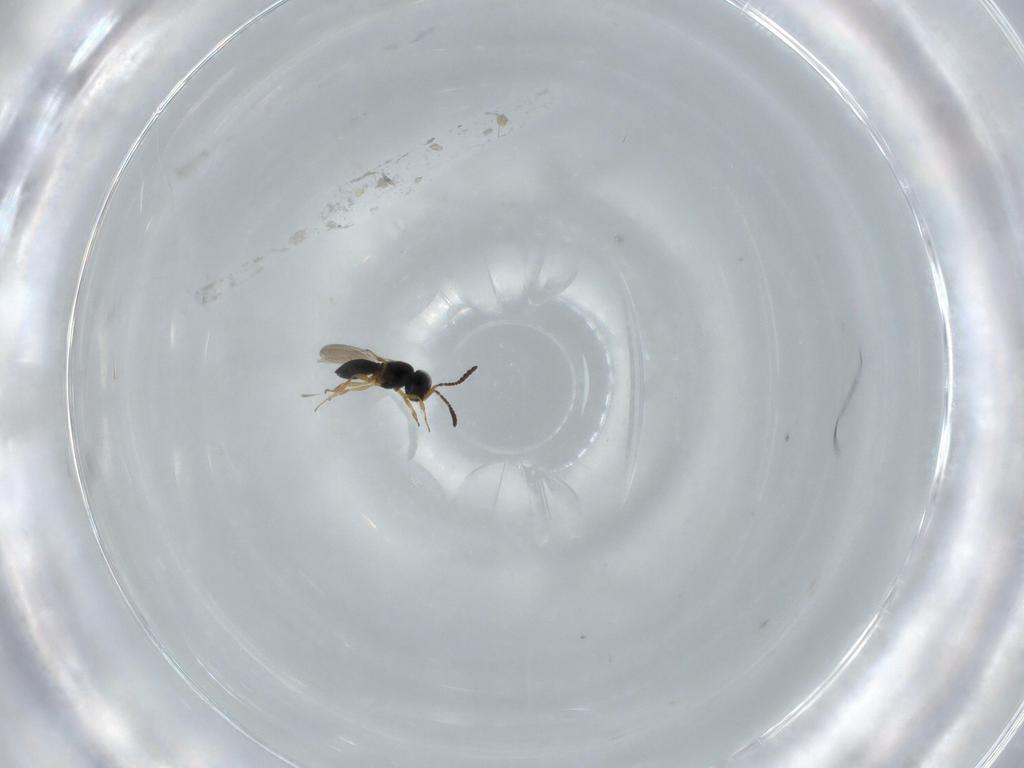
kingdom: Animalia
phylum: Arthropoda
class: Insecta
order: Hymenoptera
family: Scelionidae
